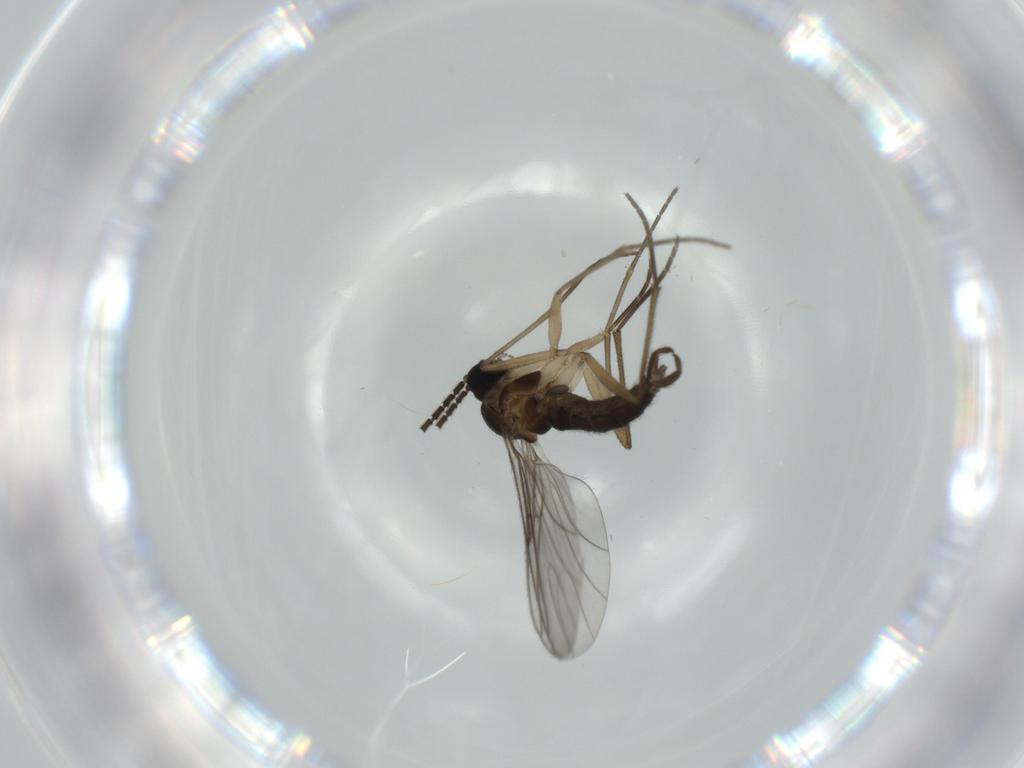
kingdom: Animalia
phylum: Arthropoda
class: Insecta
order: Diptera
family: Sciaridae
